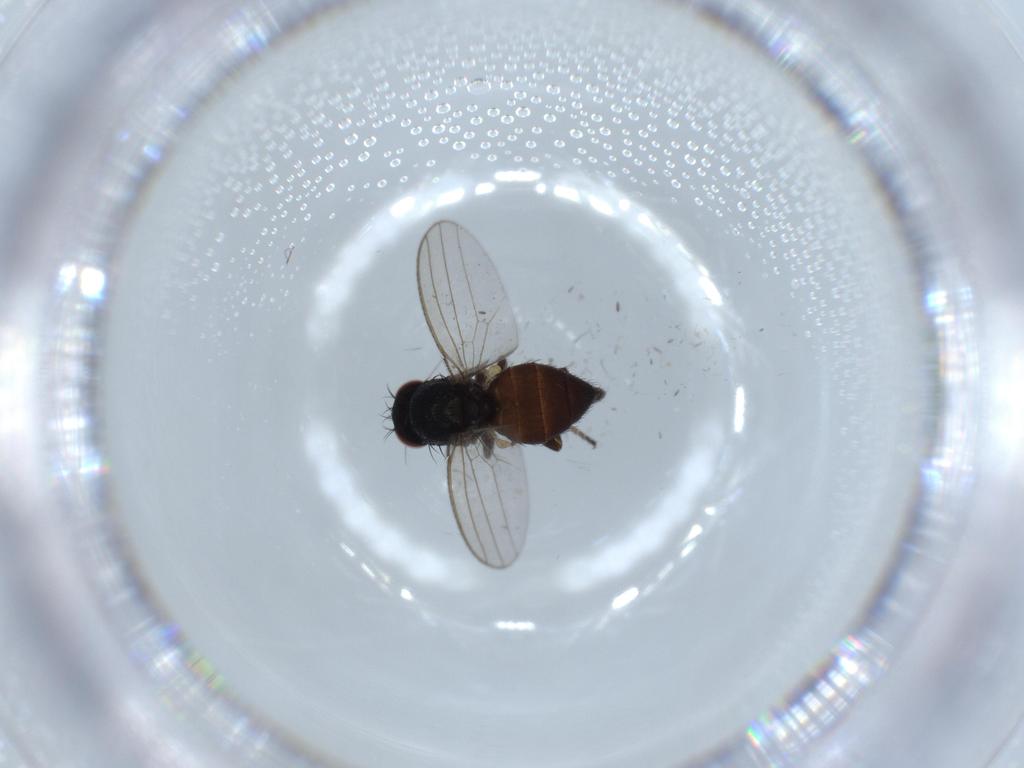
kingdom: Animalia
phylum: Arthropoda
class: Insecta
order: Diptera
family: Milichiidae
